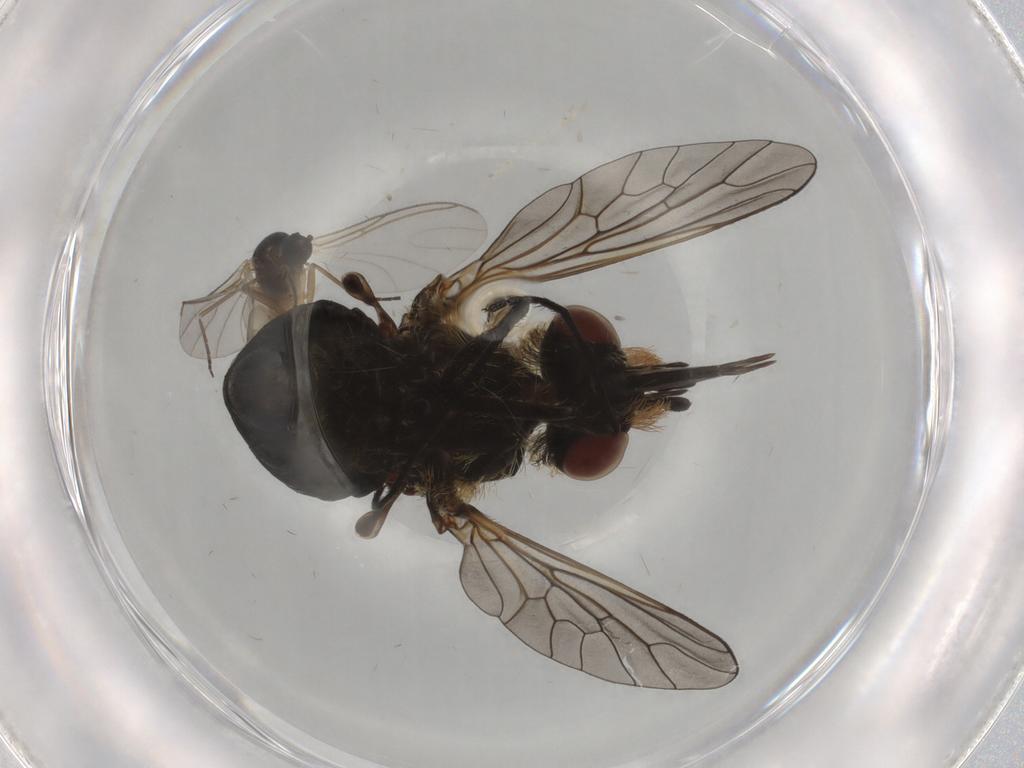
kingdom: Animalia
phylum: Arthropoda
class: Insecta
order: Diptera
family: Bombyliidae
